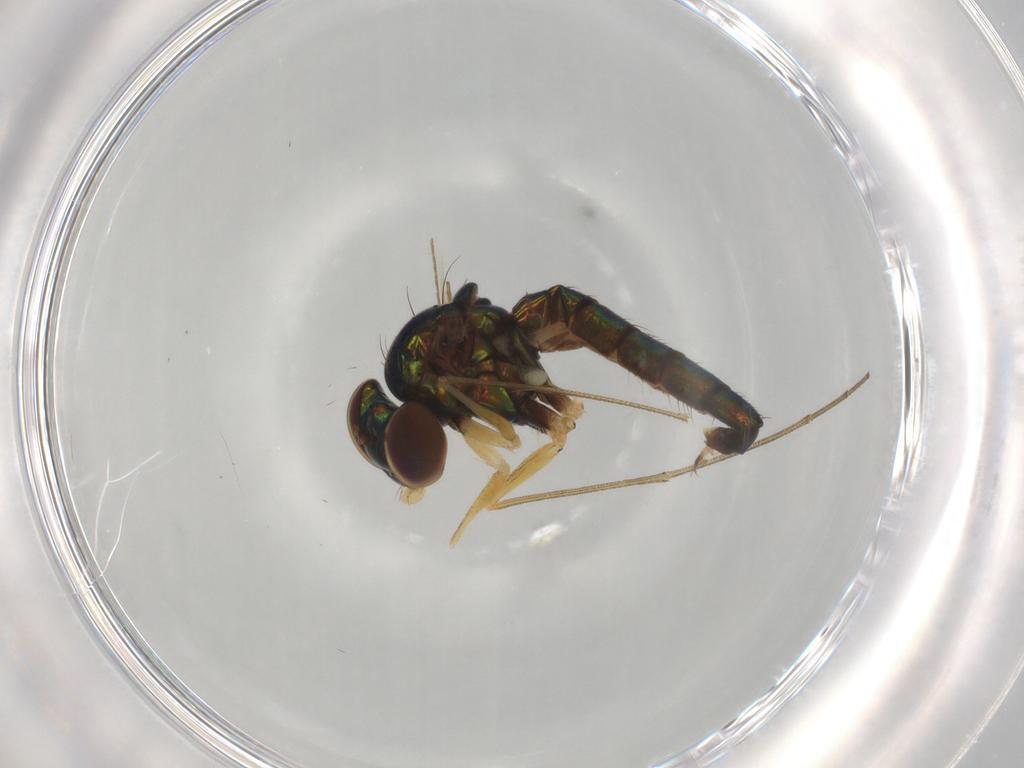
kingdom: Animalia
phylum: Arthropoda
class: Insecta
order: Diptera
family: Dolichopodidae
